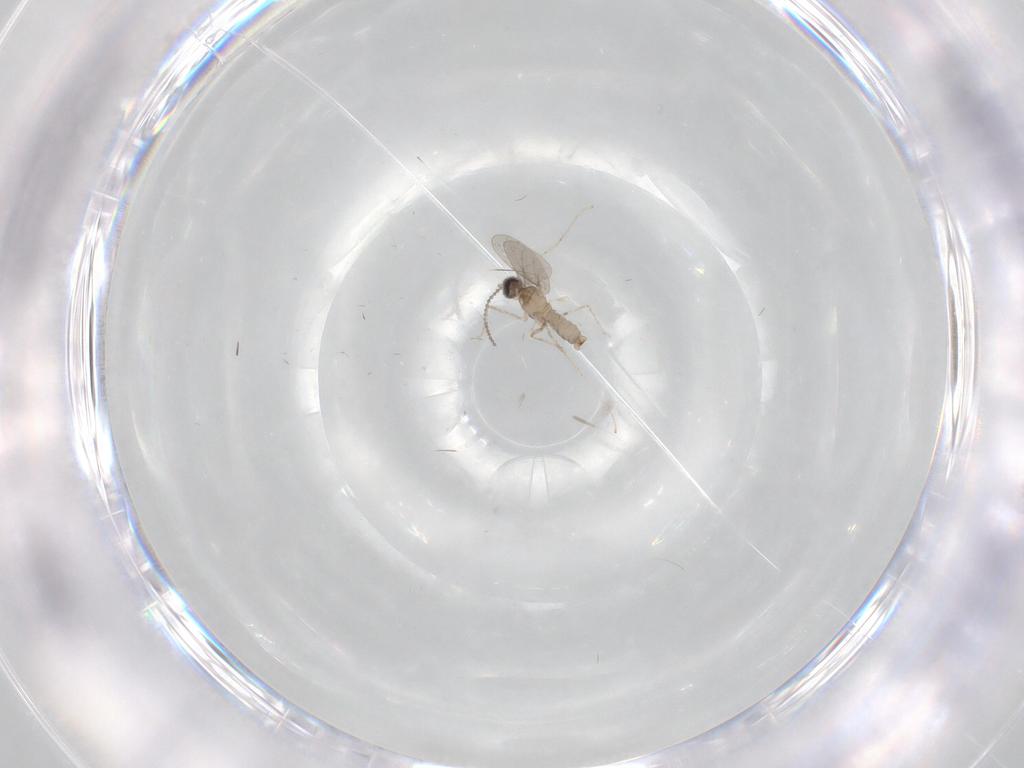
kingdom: Animalia
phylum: Arthropoda
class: Insecta
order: Diptera
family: Cecidomyiidae
